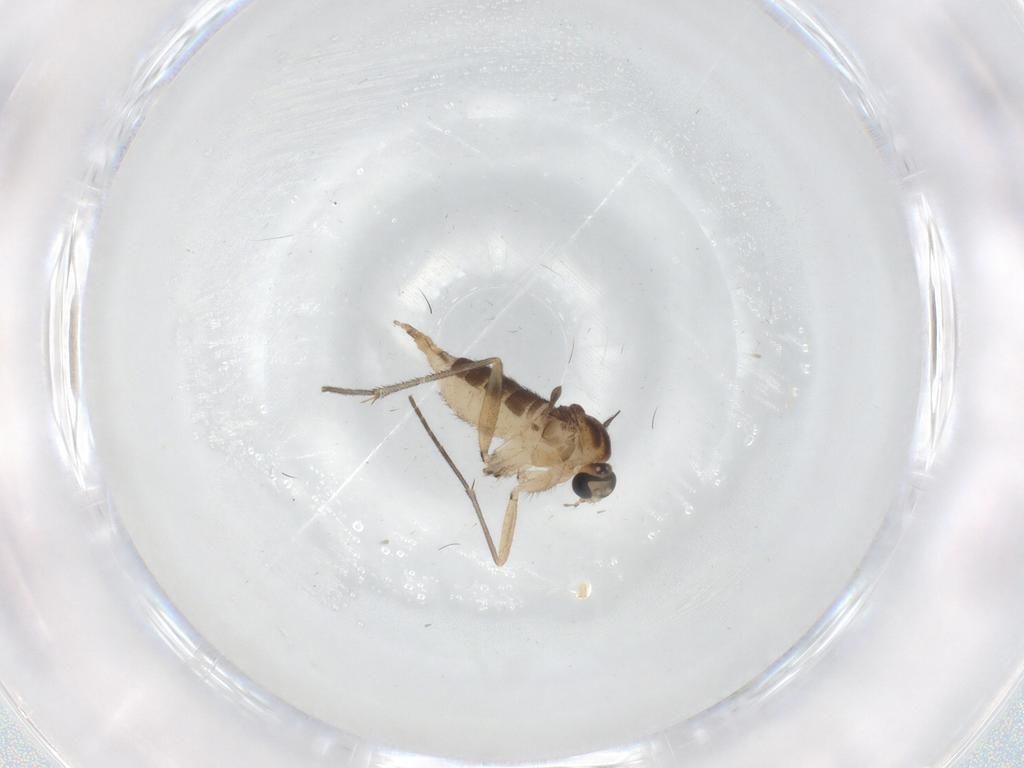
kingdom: Animalia
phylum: Arthropoda
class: Insecta
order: Diptera
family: Sciaridae
